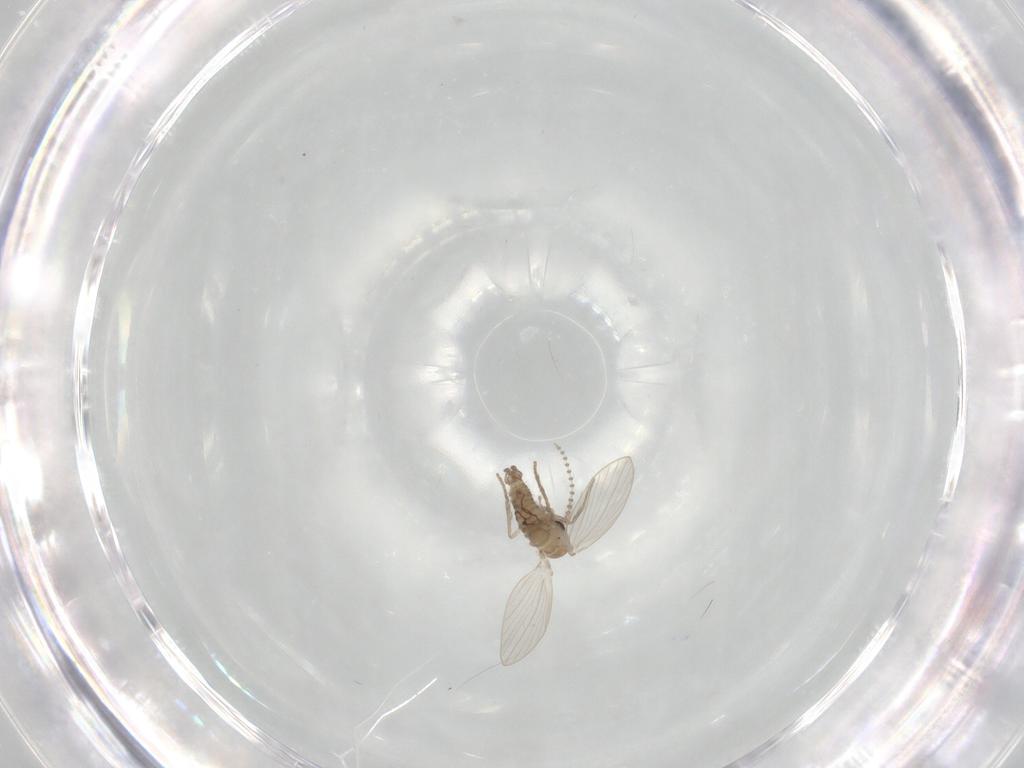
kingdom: Animalia
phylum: Arthropoda
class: Insecta
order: Diptera
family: Psychodidae
